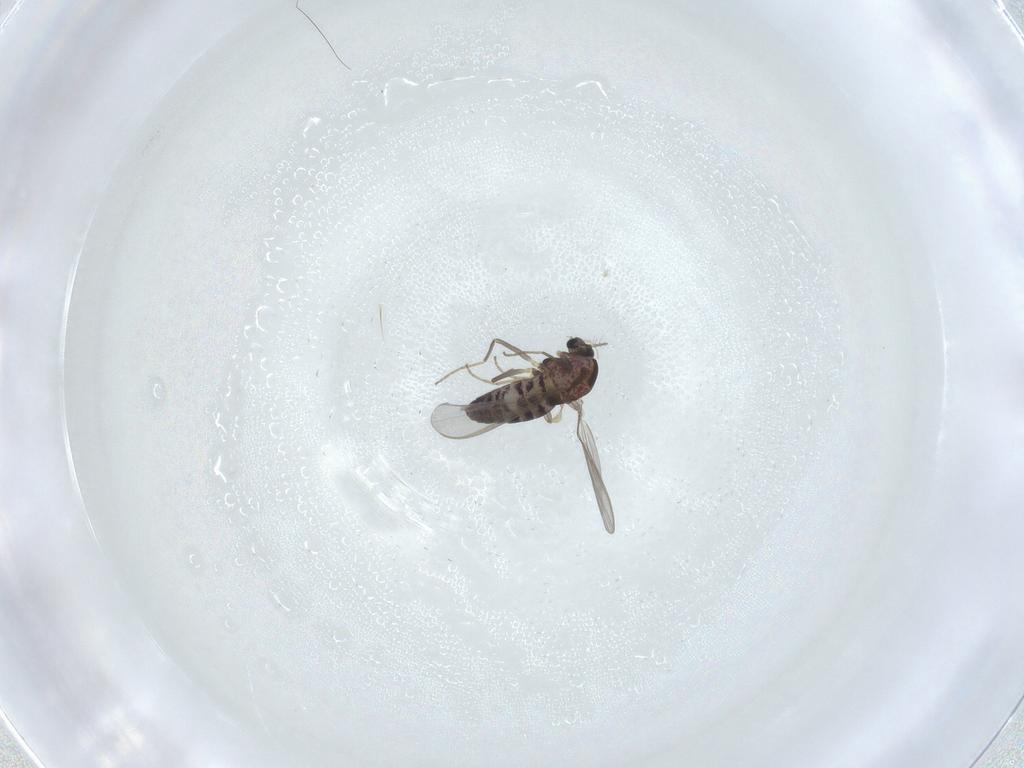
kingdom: Animalia
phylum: Arthropoda
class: Insecta
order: Diptera
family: Chironomidae
